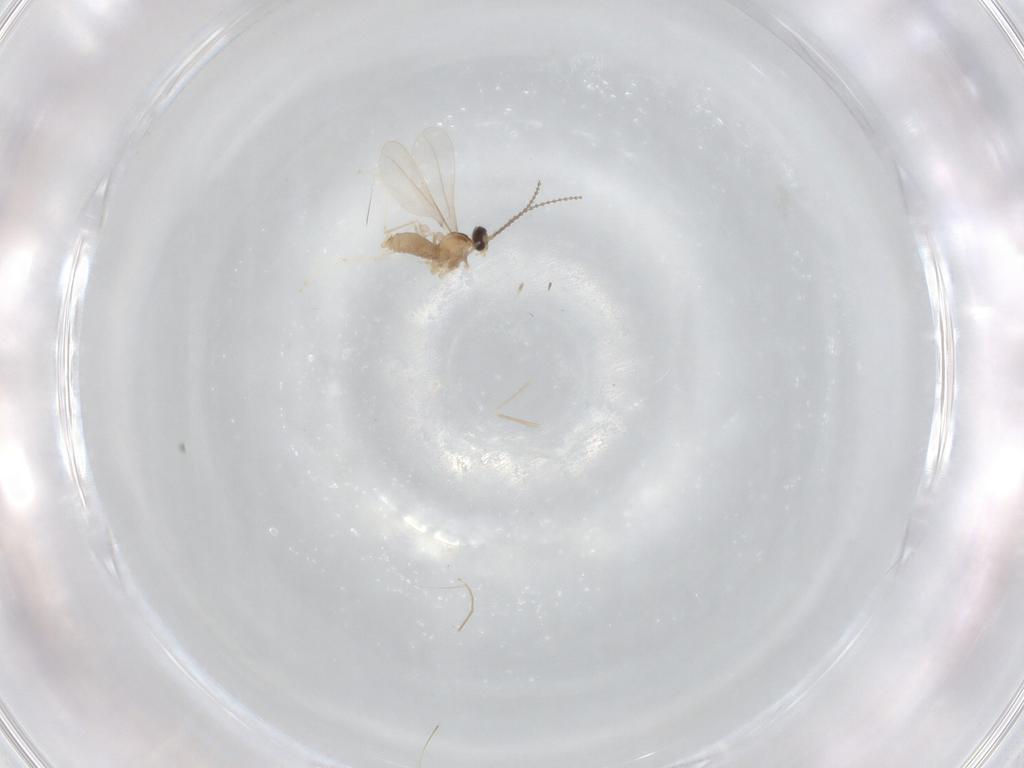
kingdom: Animalia
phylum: Arthropoda
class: Insecta
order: Diptera
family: Cecidomyiidae
